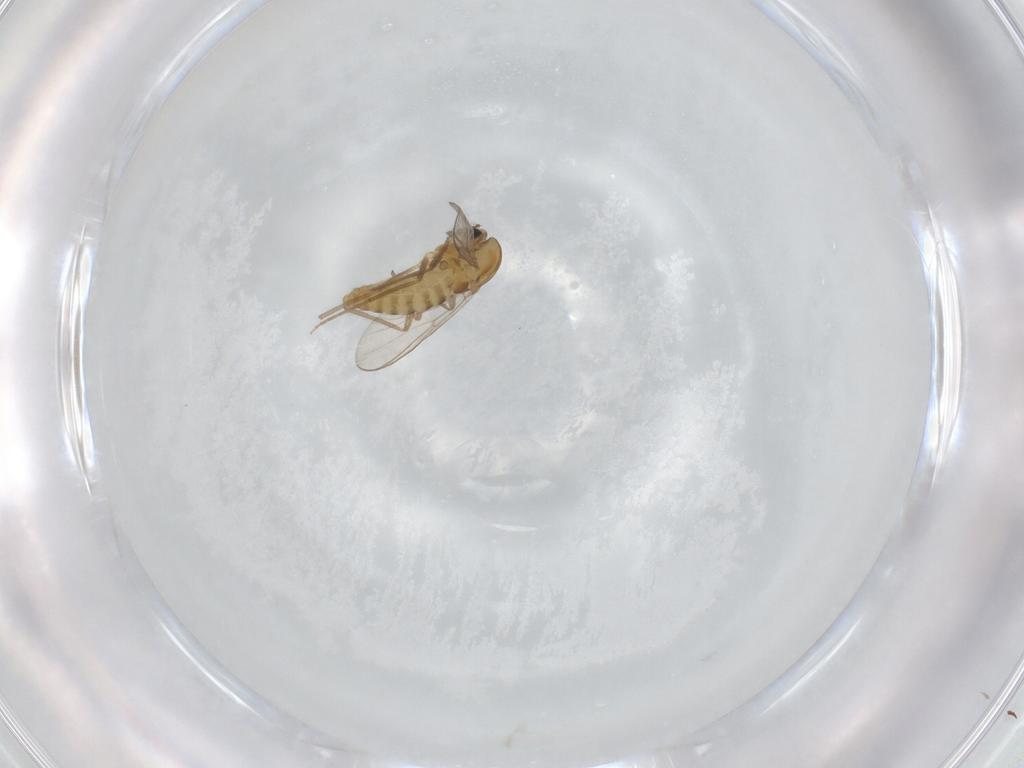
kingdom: Animalia
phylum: Arthropoda
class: Insecta
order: Diptera
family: Chironomidae
